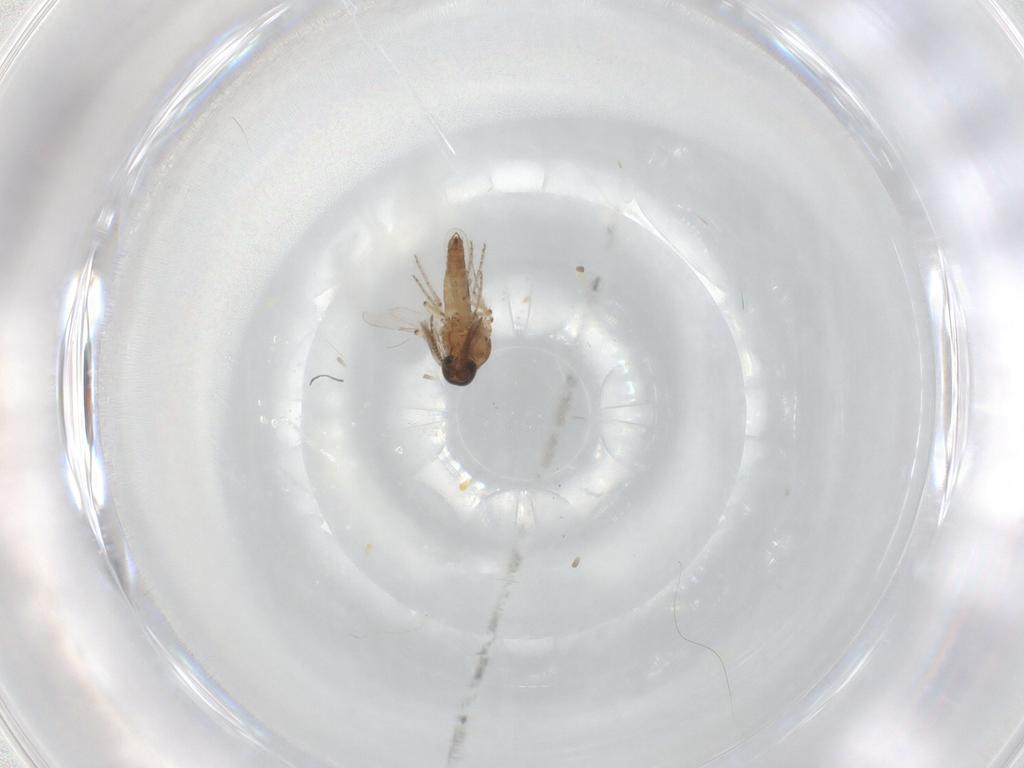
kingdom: Animalia
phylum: Arthropoda
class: Insecta
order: Diptera
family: Ceratopogonidae
